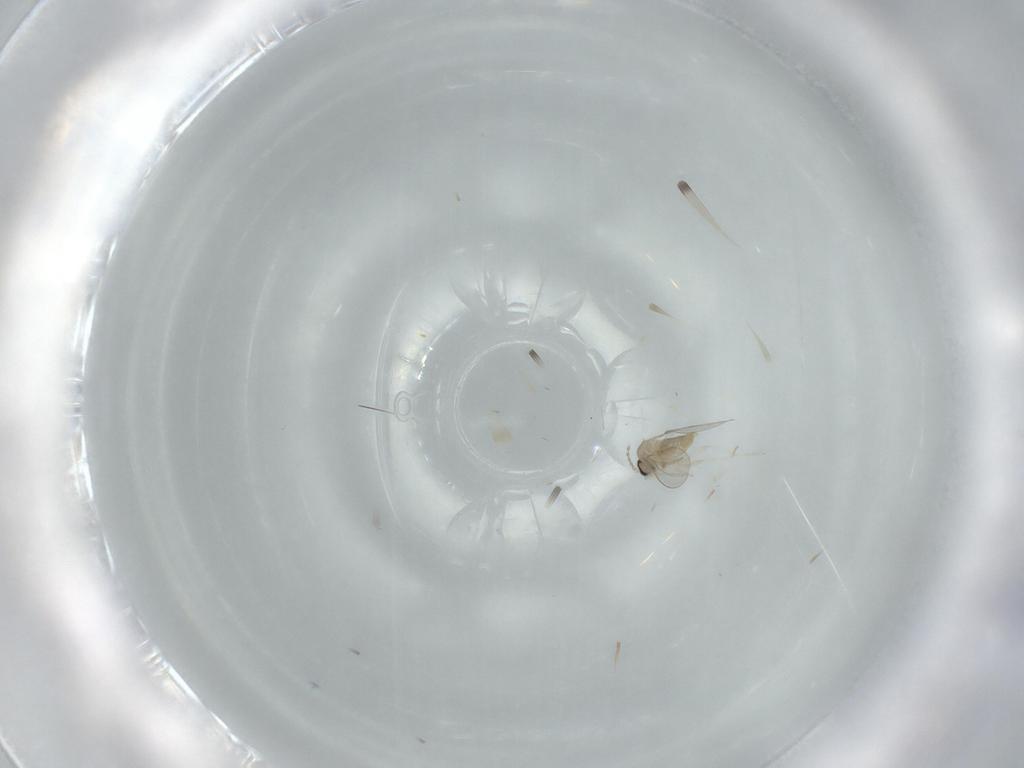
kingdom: Animalia
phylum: Arthropoda
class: Insecta
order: Diptera
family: Cecidomyiidae
